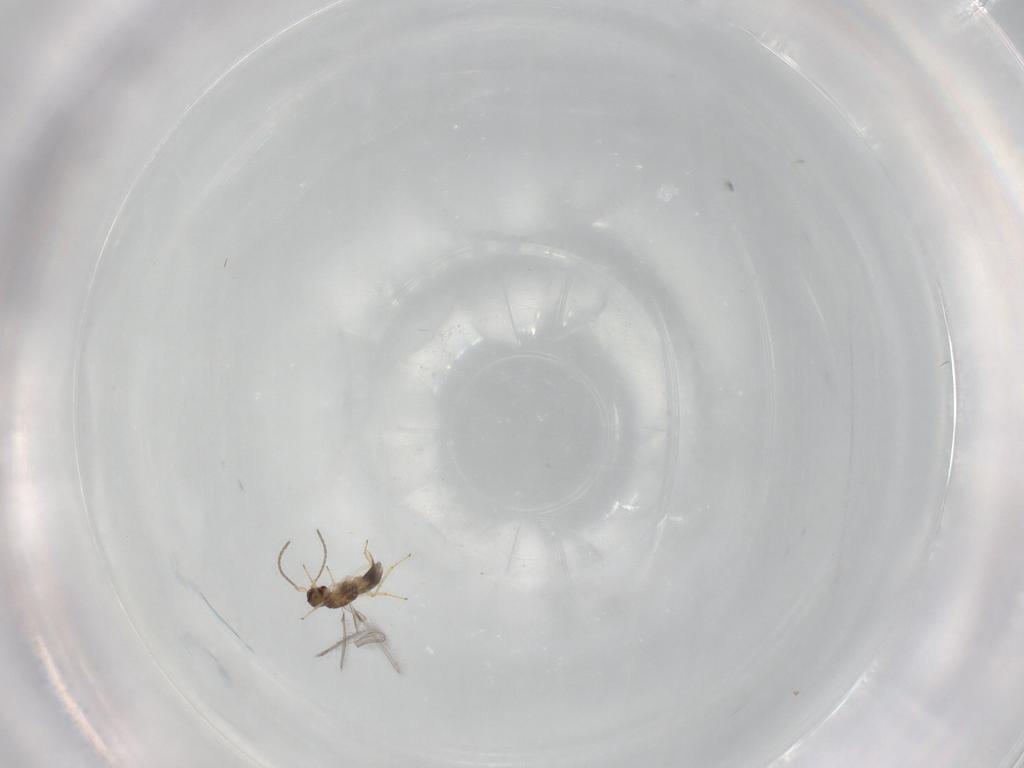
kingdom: Animalia
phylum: Arthropoda
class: Insecta
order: Hymenoptera
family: Mymaridae
